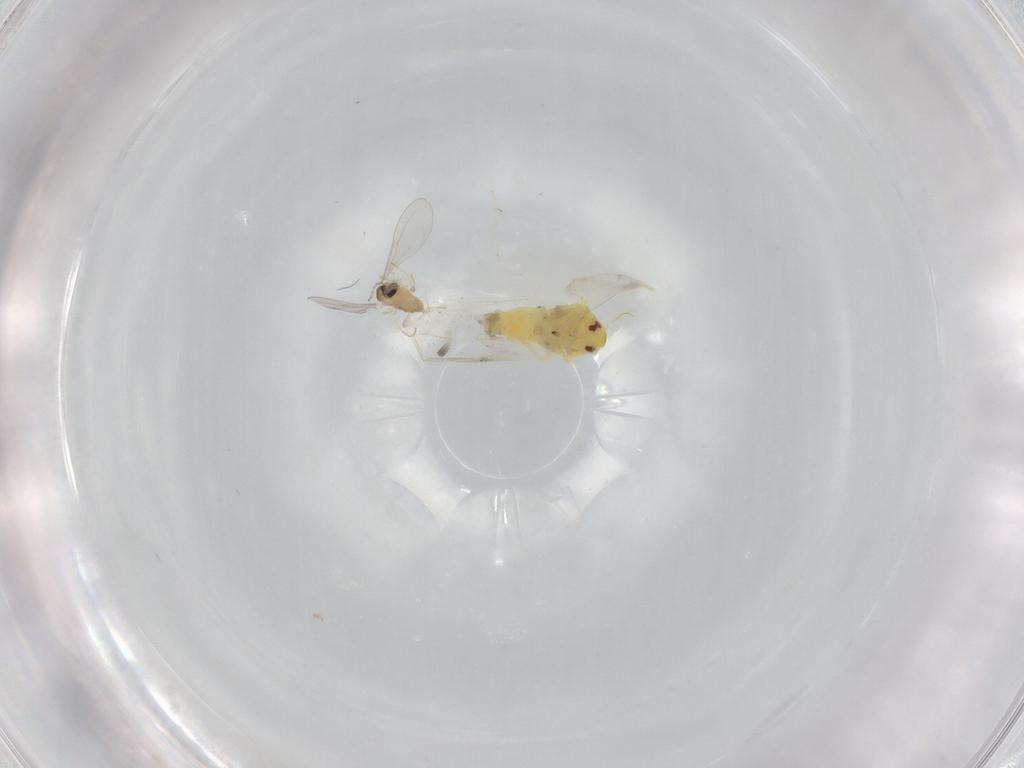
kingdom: Animalia
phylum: Arthropoda
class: Insecta
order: Hemiptera
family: Aleyrodidae
